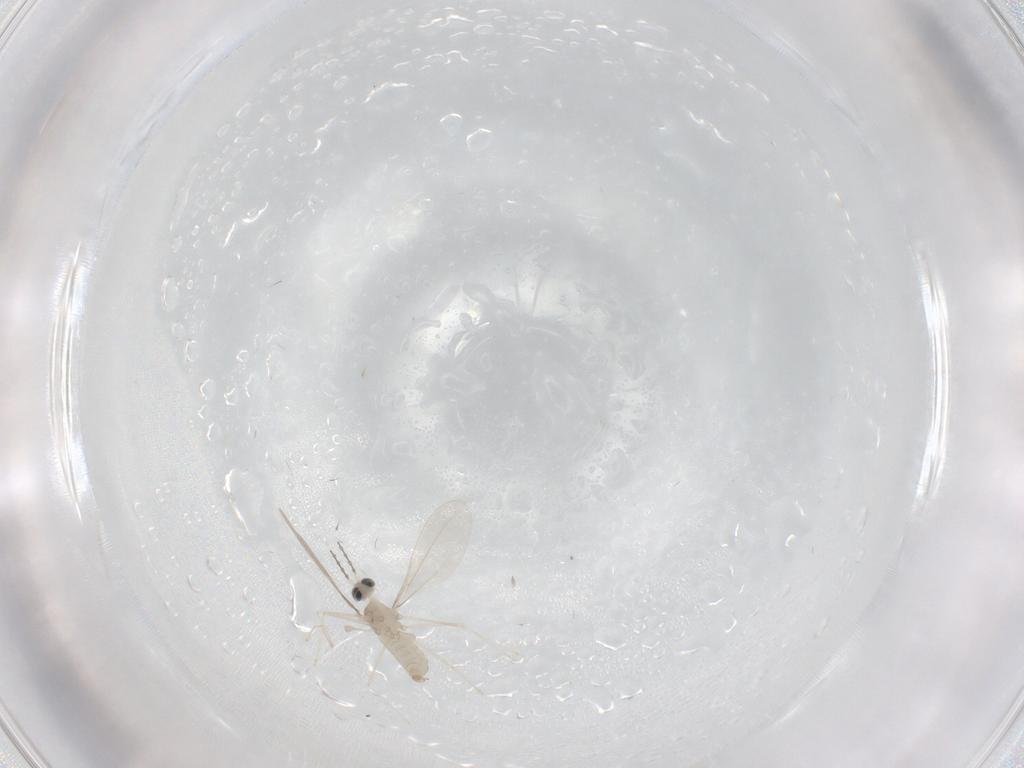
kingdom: Animalia
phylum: Arthropoda
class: Insecta
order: Diptera
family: Cecidomyiidae
